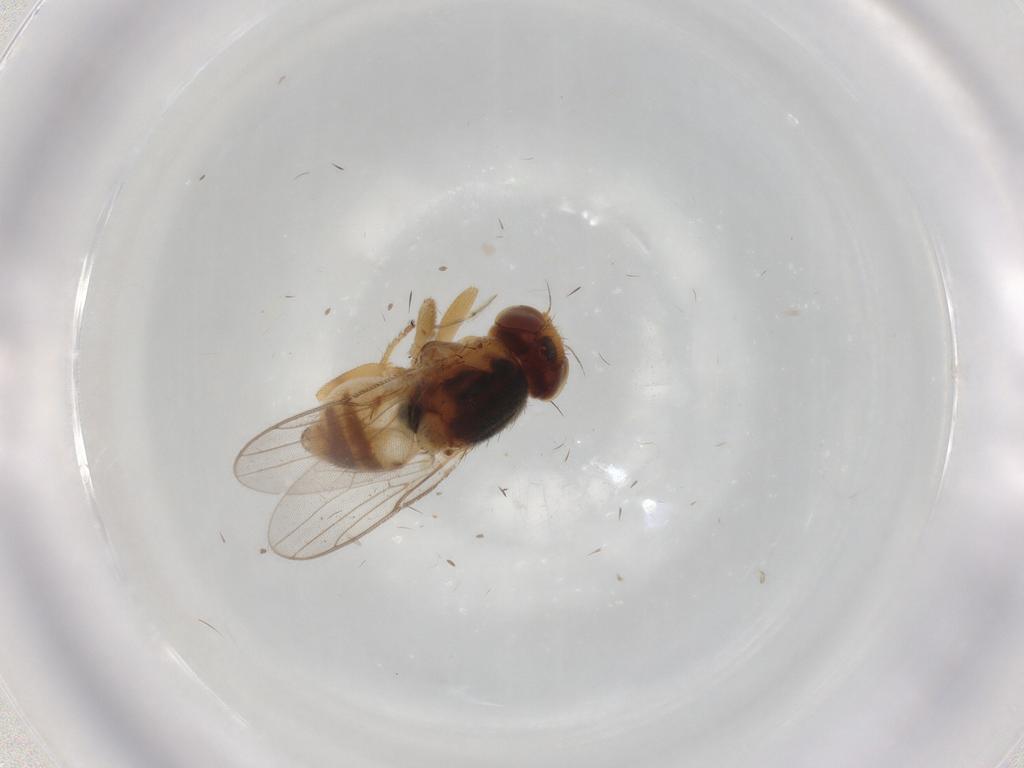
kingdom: Animalia
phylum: Arthropoda
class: Insecta
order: Diptera
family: Chloropidae
